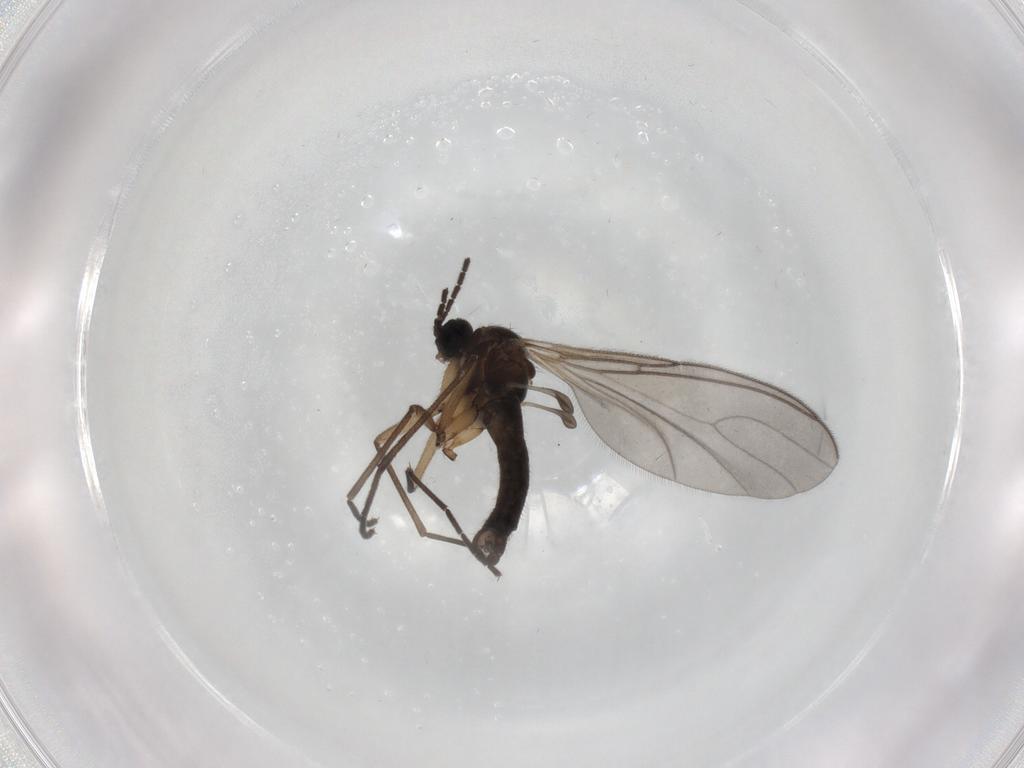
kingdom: Animalia
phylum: Arthropoda
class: Insecta
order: Diptera
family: Sciaridae
